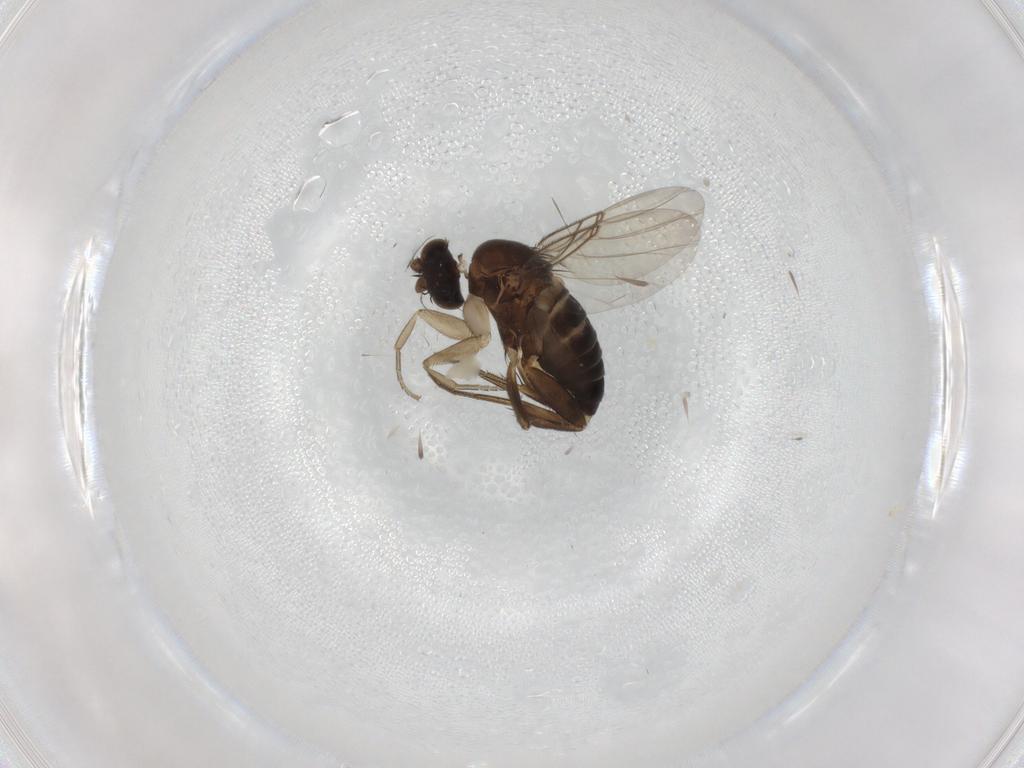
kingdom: Animalia
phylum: Arthropoda
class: Insecta
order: Diptera
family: Phoridae
